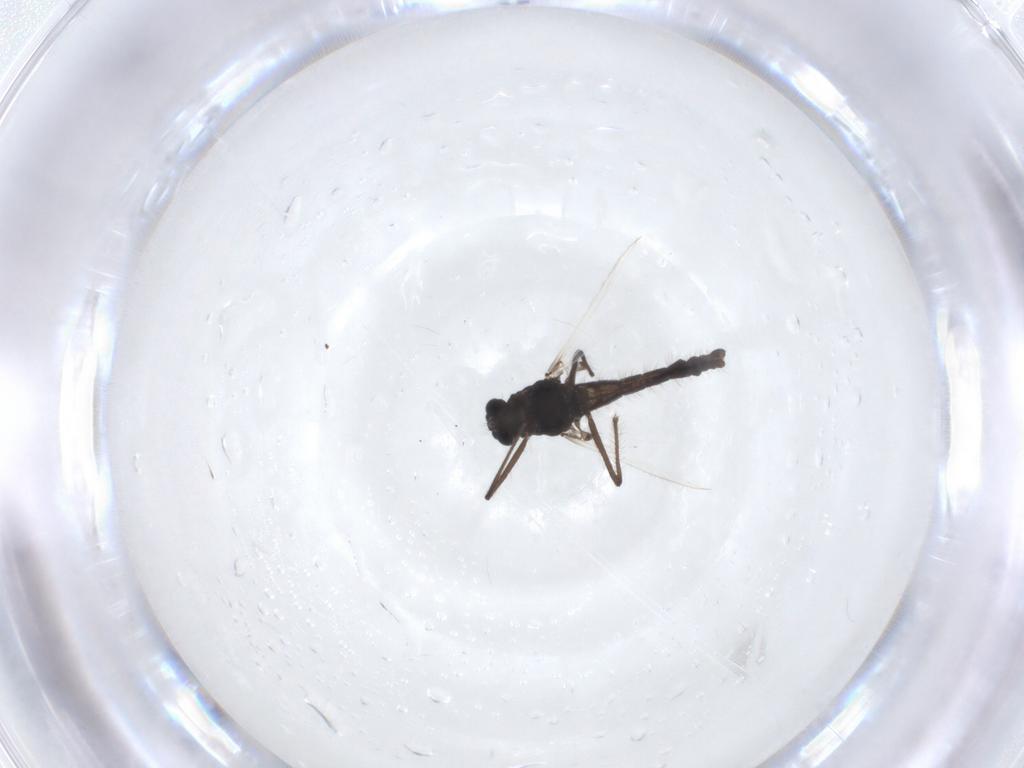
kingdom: Animalia
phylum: Arthropoda
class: Insecta
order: Diptera
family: Chironomidae
